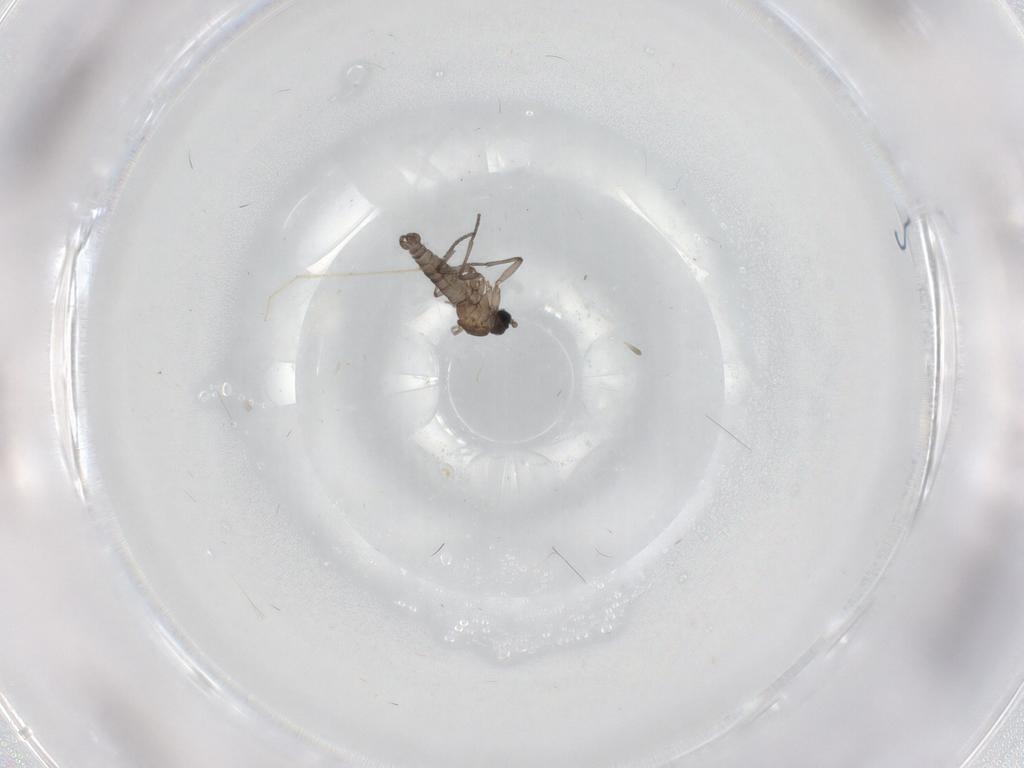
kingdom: Animalia
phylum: Arthropoda
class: Insecta
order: Diptera
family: Sciaridae
